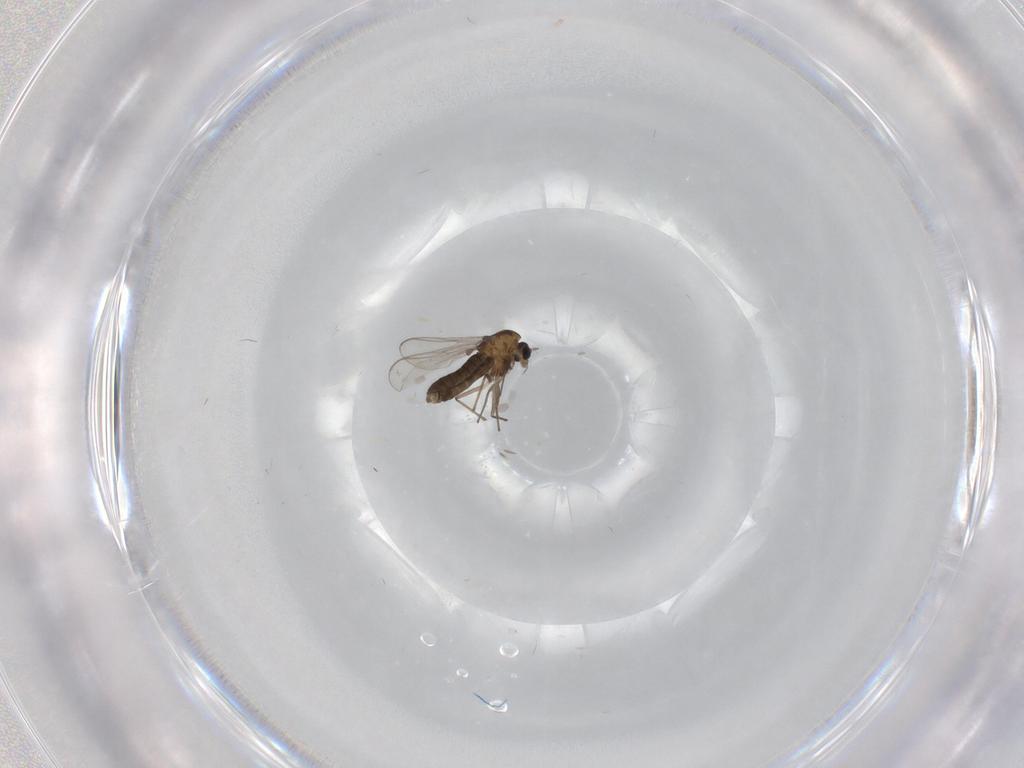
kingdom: Animalia
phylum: Arthropoda
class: Insecta
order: Diptera
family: Chironomidae
